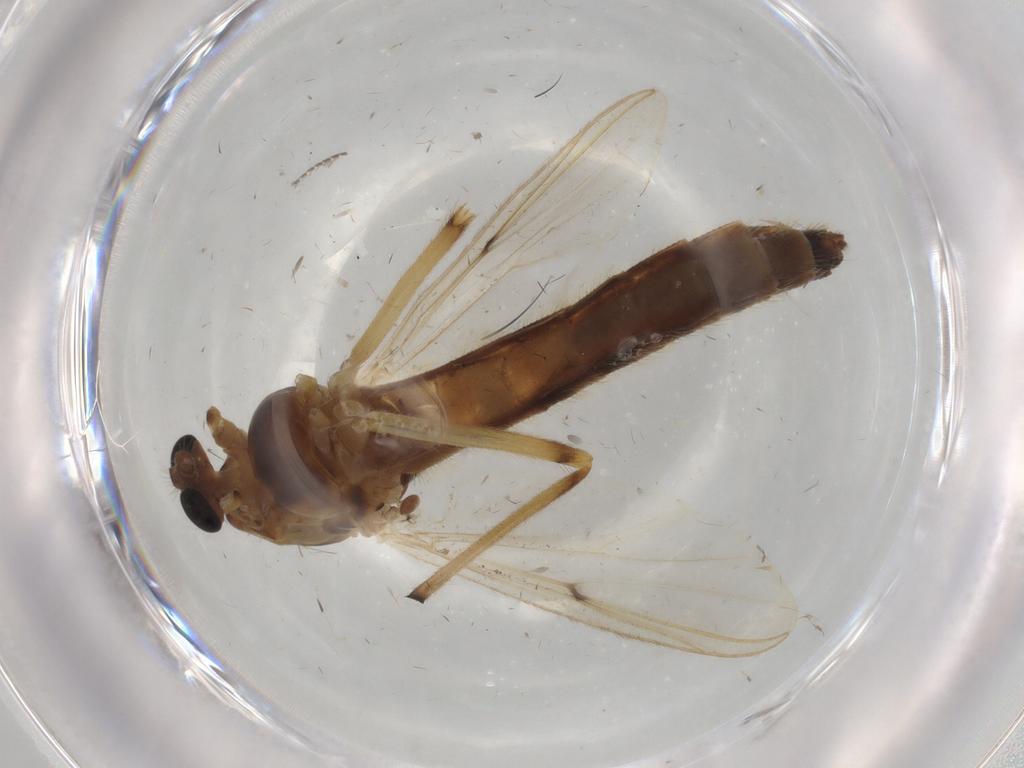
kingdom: Animalia
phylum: Arthropoda
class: Insecta
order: Diptera
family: Chironomidae
